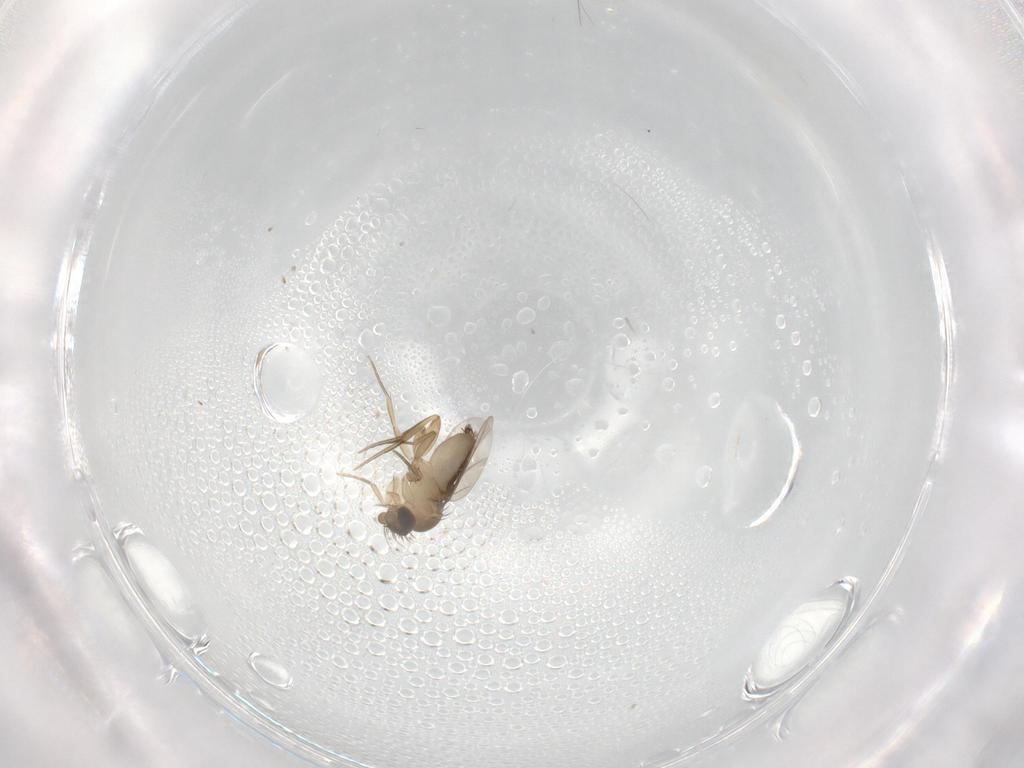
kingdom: Animalia
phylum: Arthropoda
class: Insecta
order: Diptera
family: Phoridae
